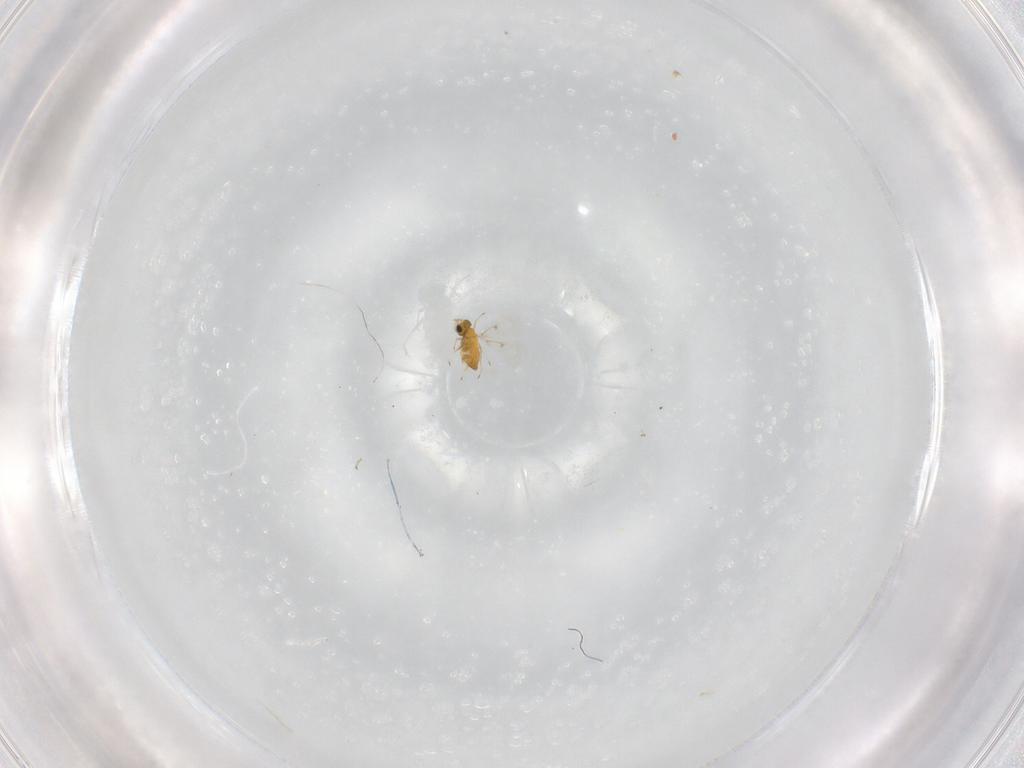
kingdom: Animalia
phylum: Arthropoda
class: Insecta
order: Hymenoptera
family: Trichogrammatidae
